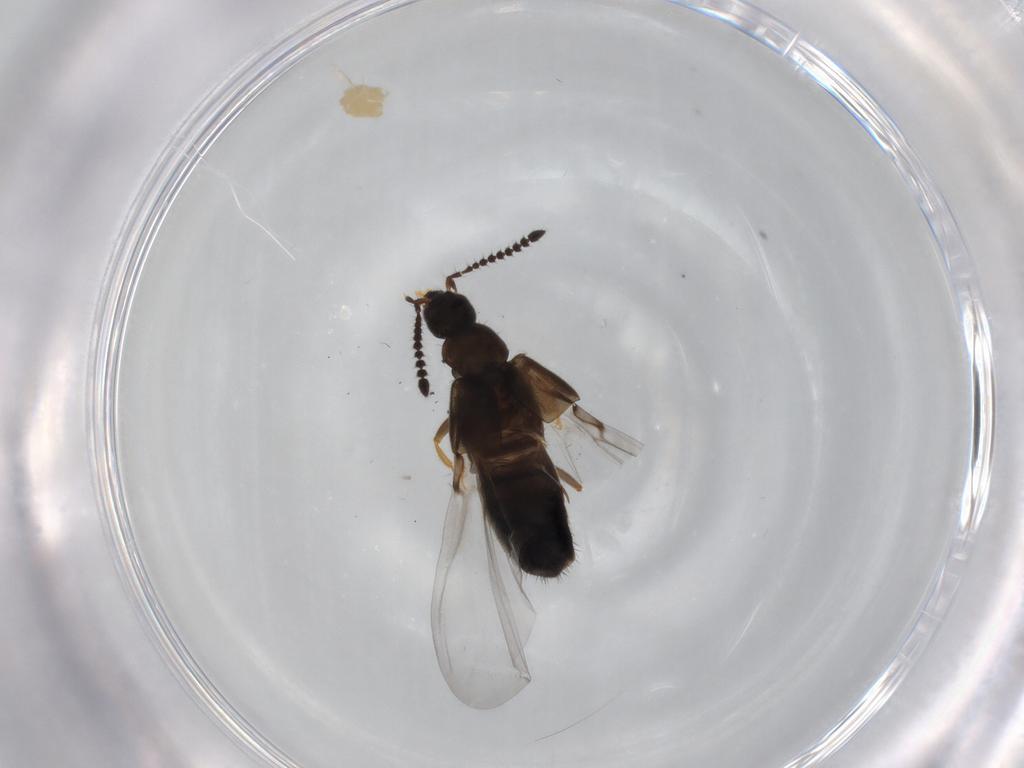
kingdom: Animalia
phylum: Arthropoda
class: Insecta
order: Coleoptera
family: Staphylinidae
